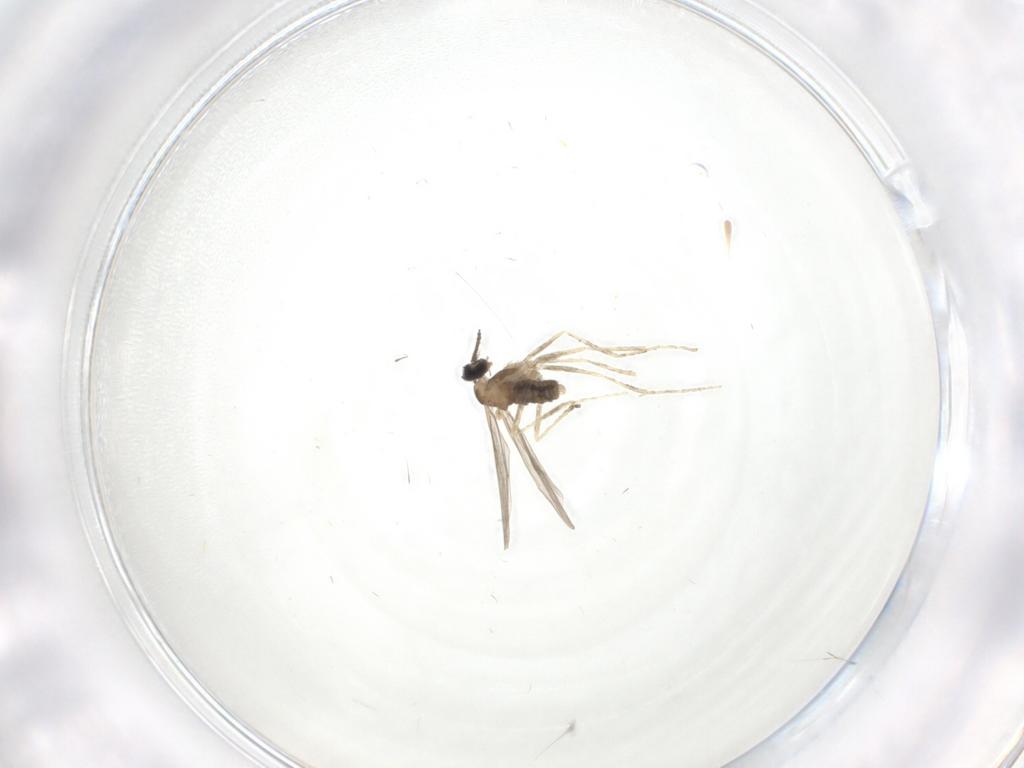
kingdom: Animalia
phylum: Arthropoda
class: Insecta
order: Diptera
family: Cecidomyiidae
